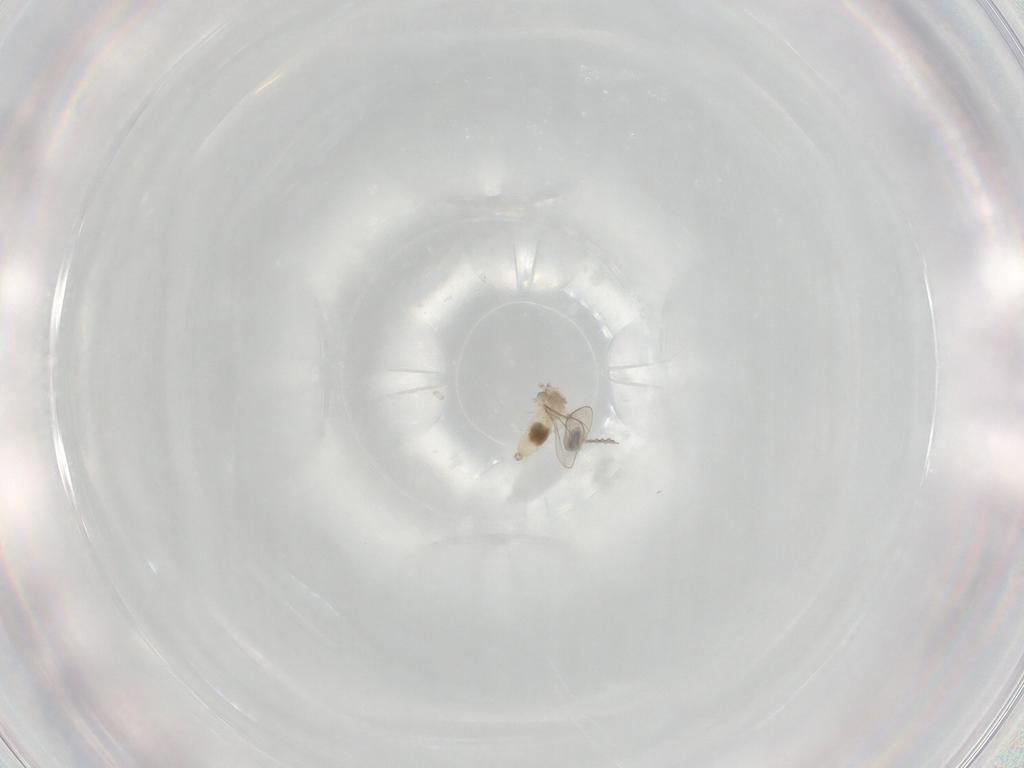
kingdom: Animalia
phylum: Arthropoda
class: Insecta
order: Diptera
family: Cecidomyiidae
